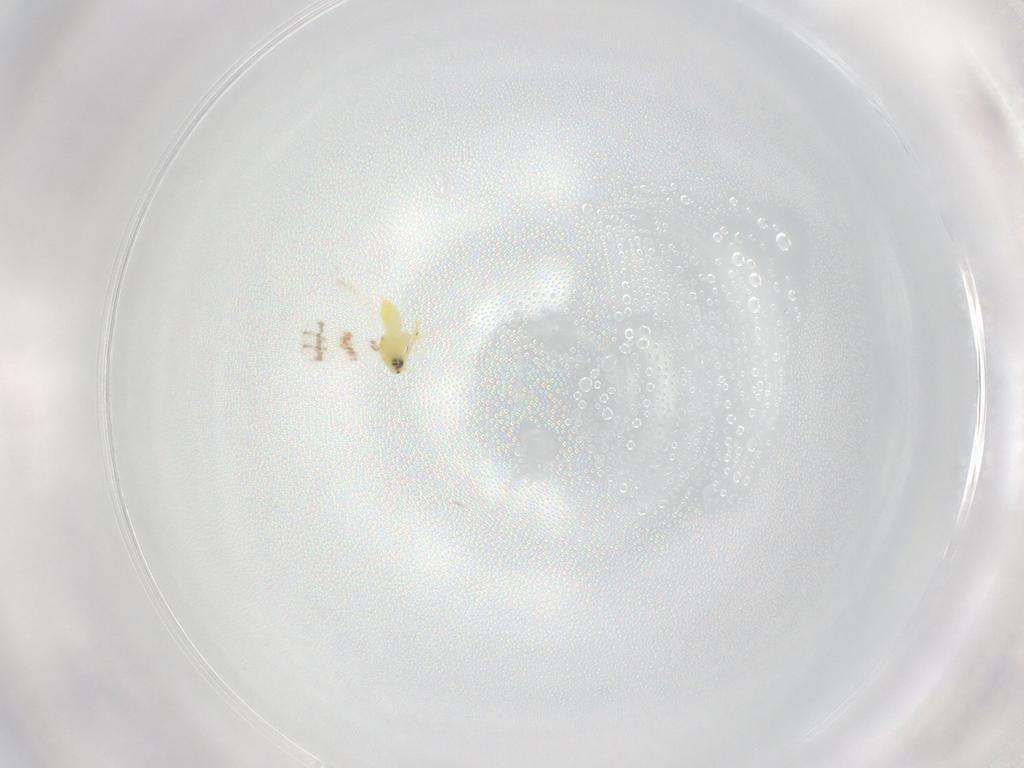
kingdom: Animalia
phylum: Arthropoda
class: Insecta
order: Hemiptera
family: Aleyrodidae
